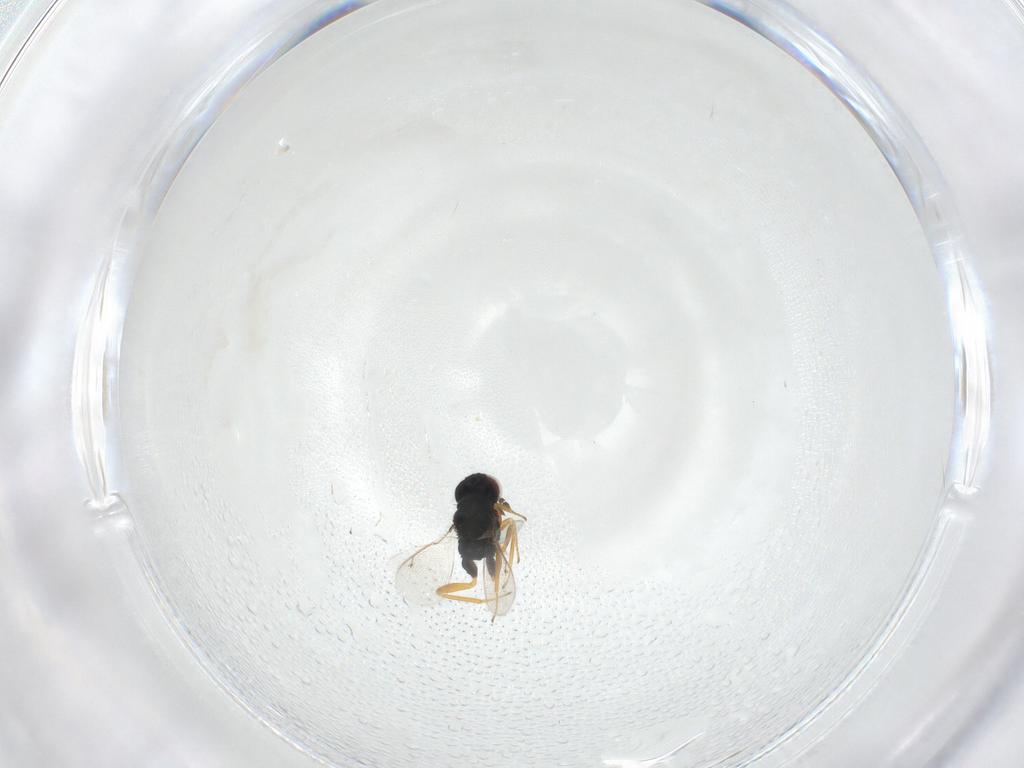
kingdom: Animalia
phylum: Arthropoda
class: Insecta
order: Hymenoptera
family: Eulophidae
